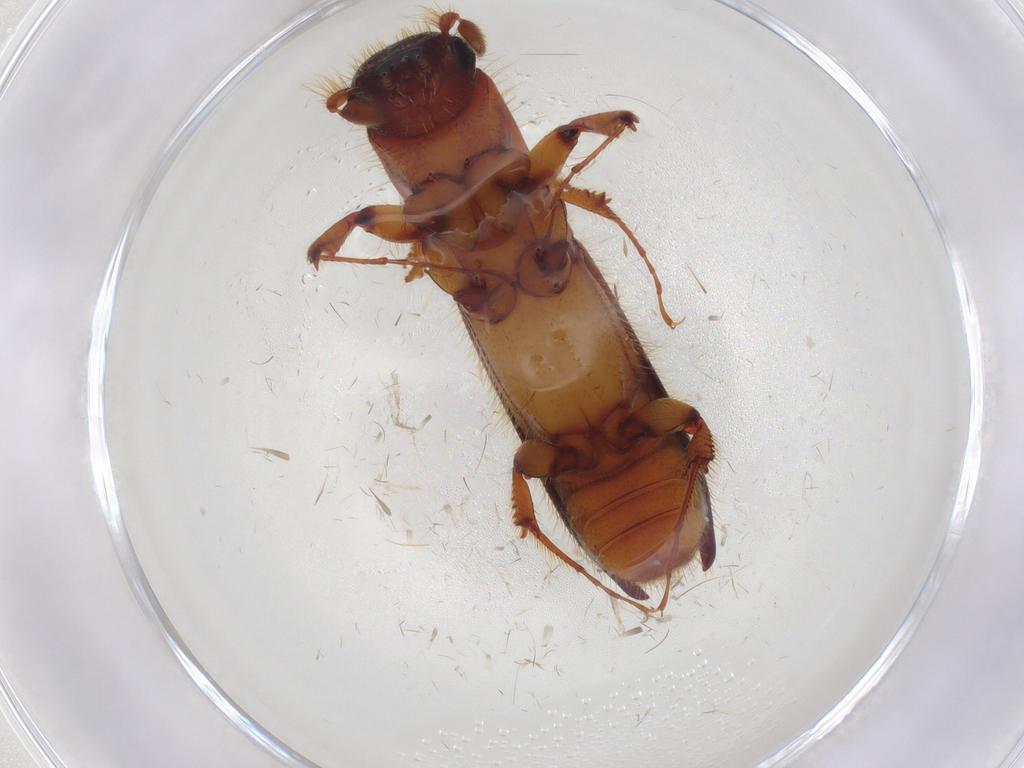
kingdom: Animalia
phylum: Arthropoda
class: Insecta
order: Coleoptera
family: Curculionidae
